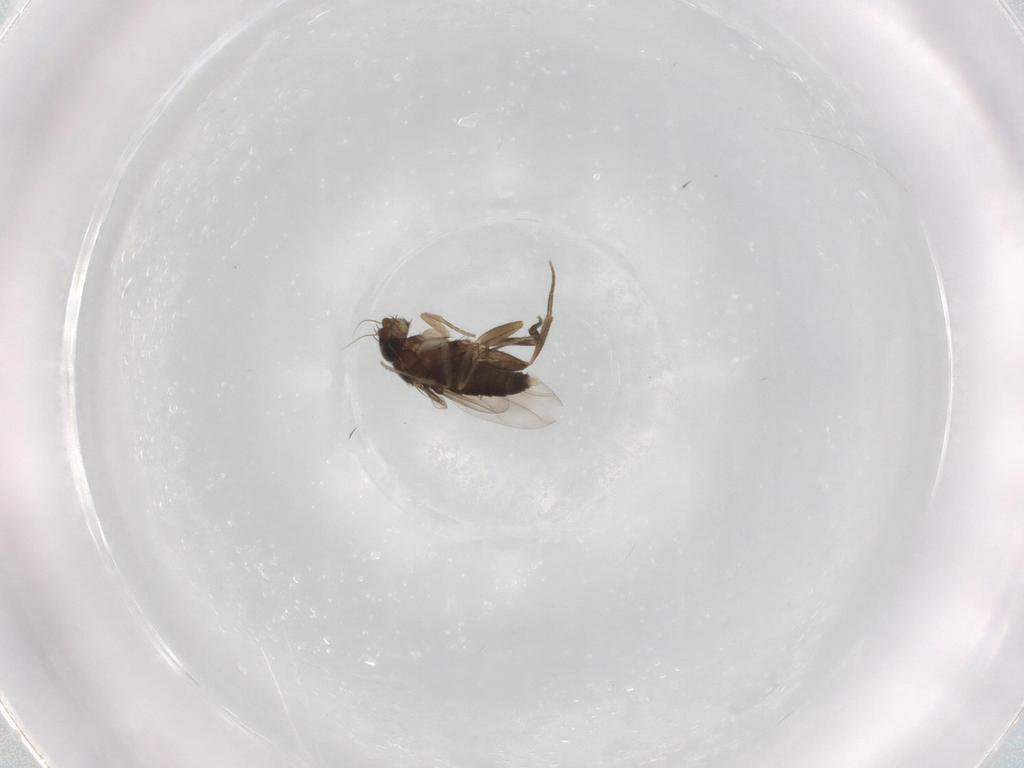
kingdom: Animalia
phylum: Arthropoda
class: Insecta
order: Diptera
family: Phoridae
